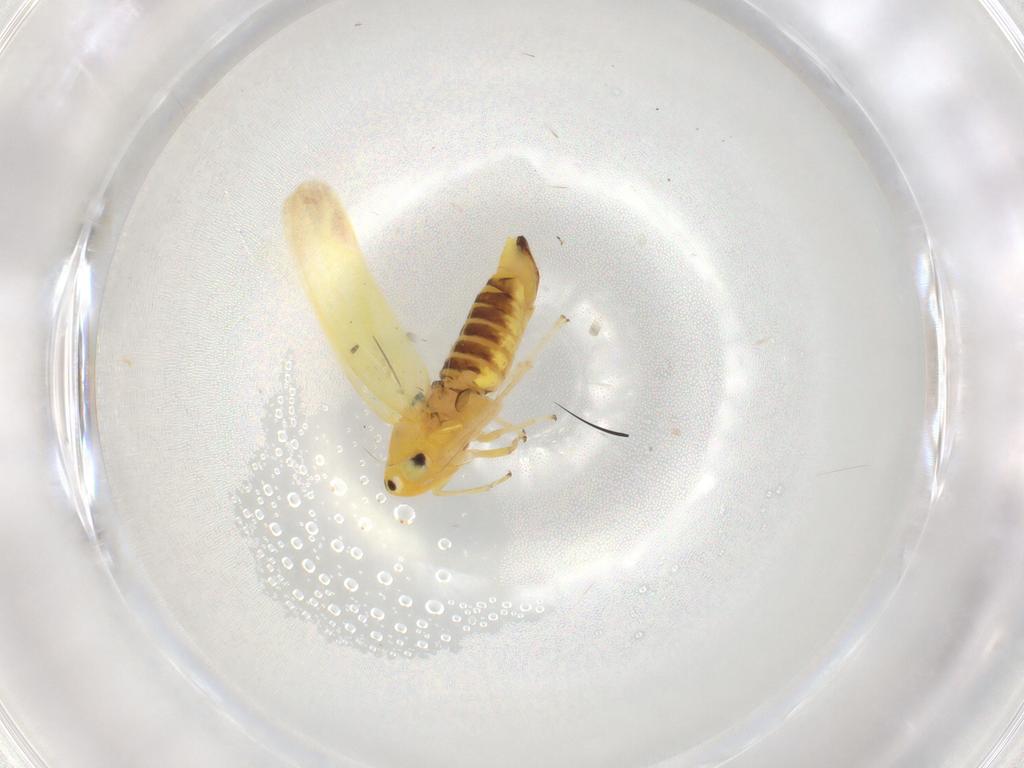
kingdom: Animalia
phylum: Arthropoda
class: Insecta
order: Hemiptera
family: Cicadellidae
